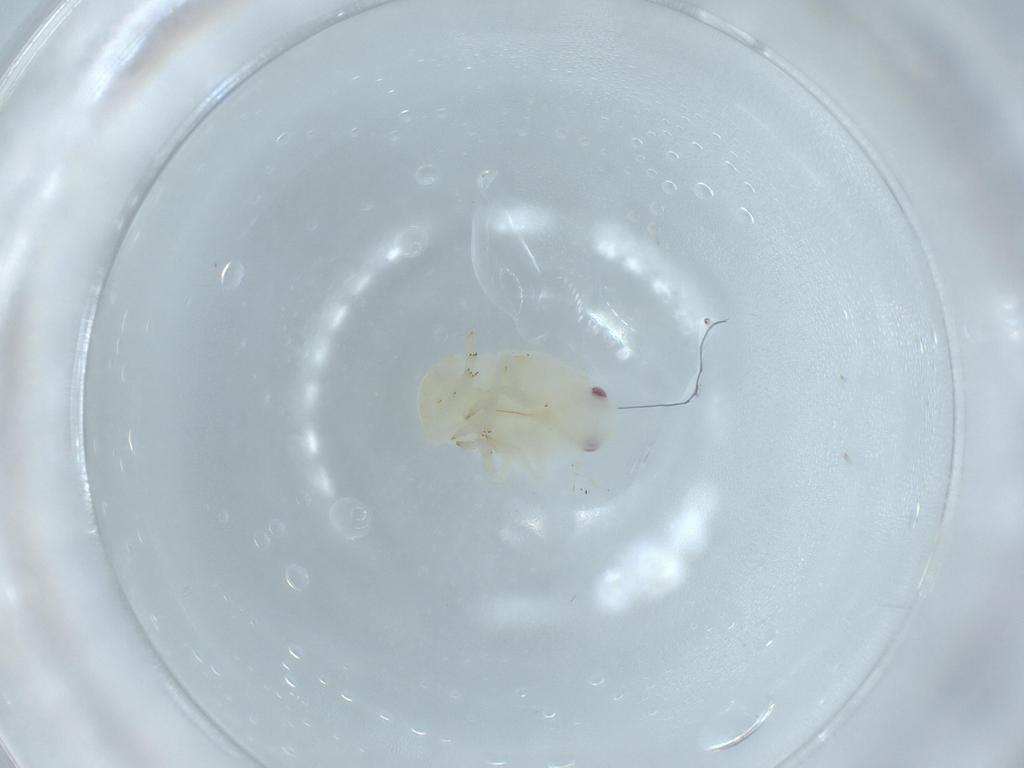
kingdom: Animalia
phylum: Arthropoda
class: Insecta
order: Hemiptera
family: Flatidae
